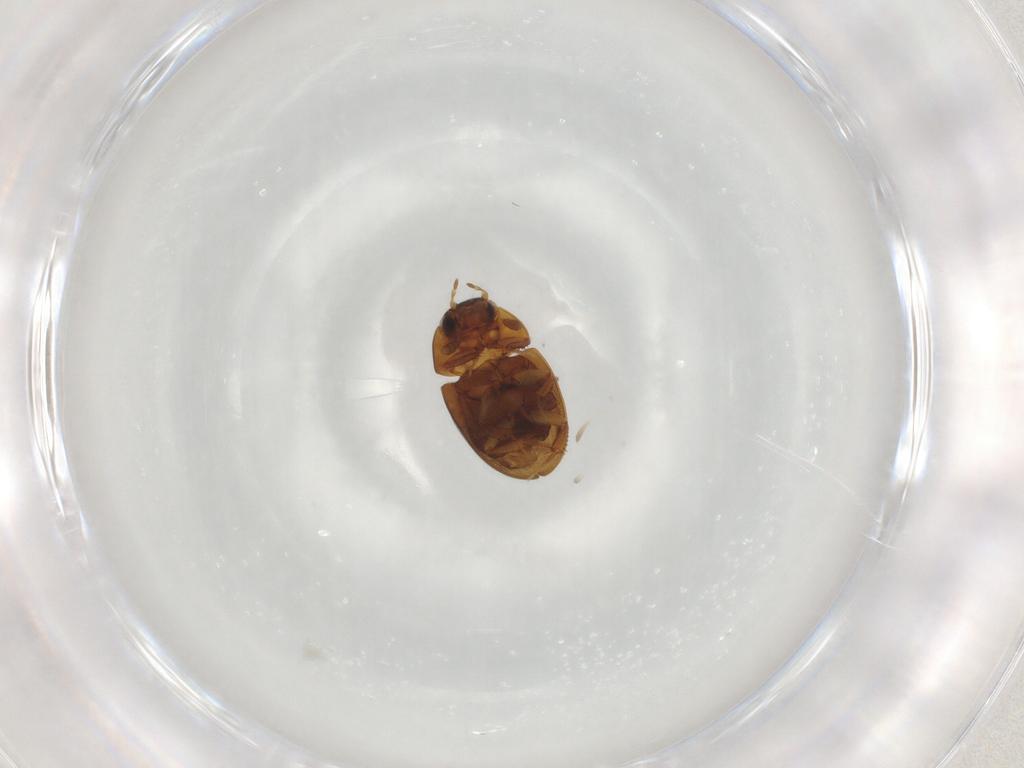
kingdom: Animalia
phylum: Arthropoda
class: Insecta
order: Coleoptera
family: Hydrophilidae
